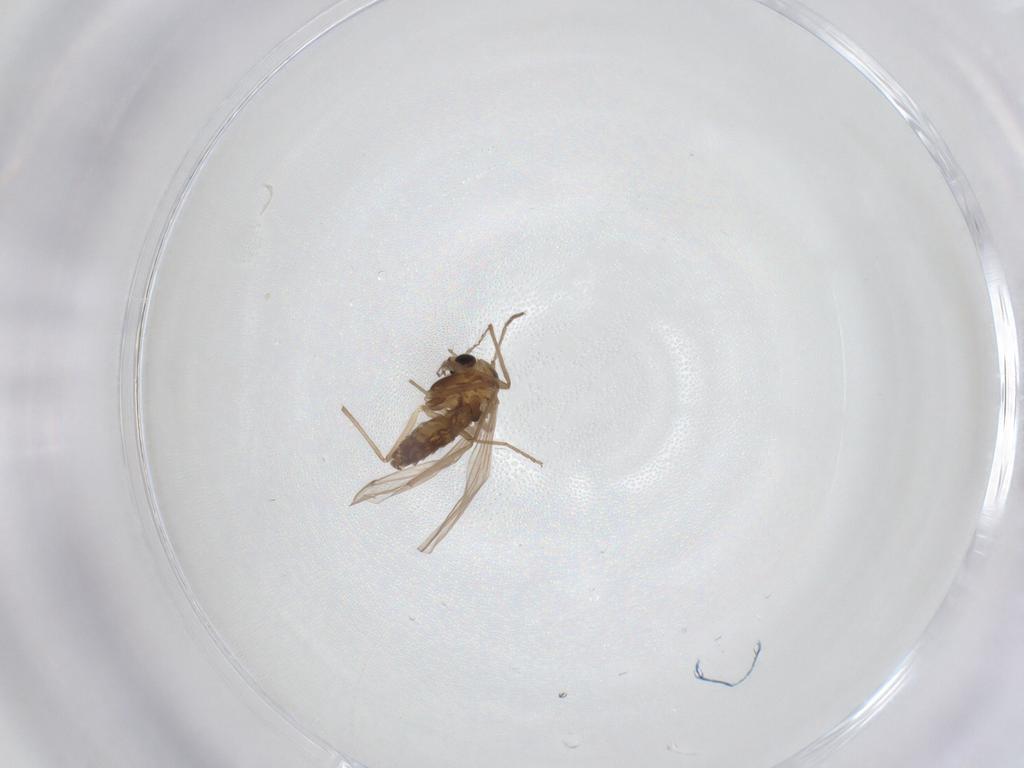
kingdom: Animalia
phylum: Arthropoda
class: Insecta
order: Diptera
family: Chironomidae
